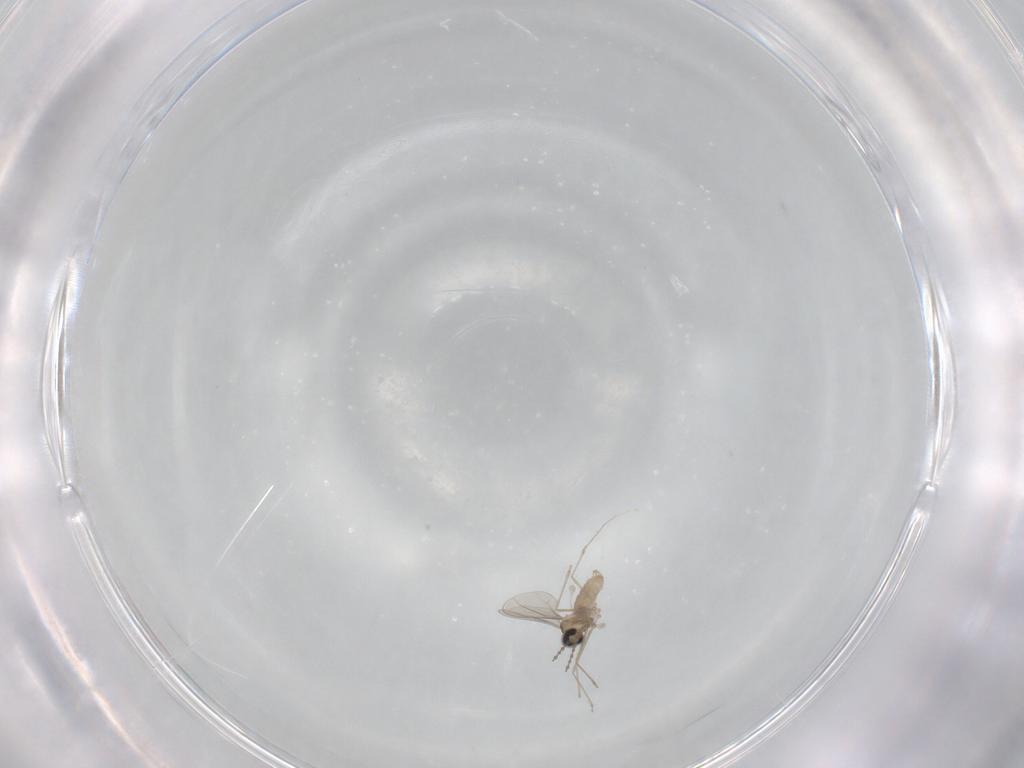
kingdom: Animalia
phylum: Arthropoda
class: Insecta
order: Diptera
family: Cecidomyiidae
